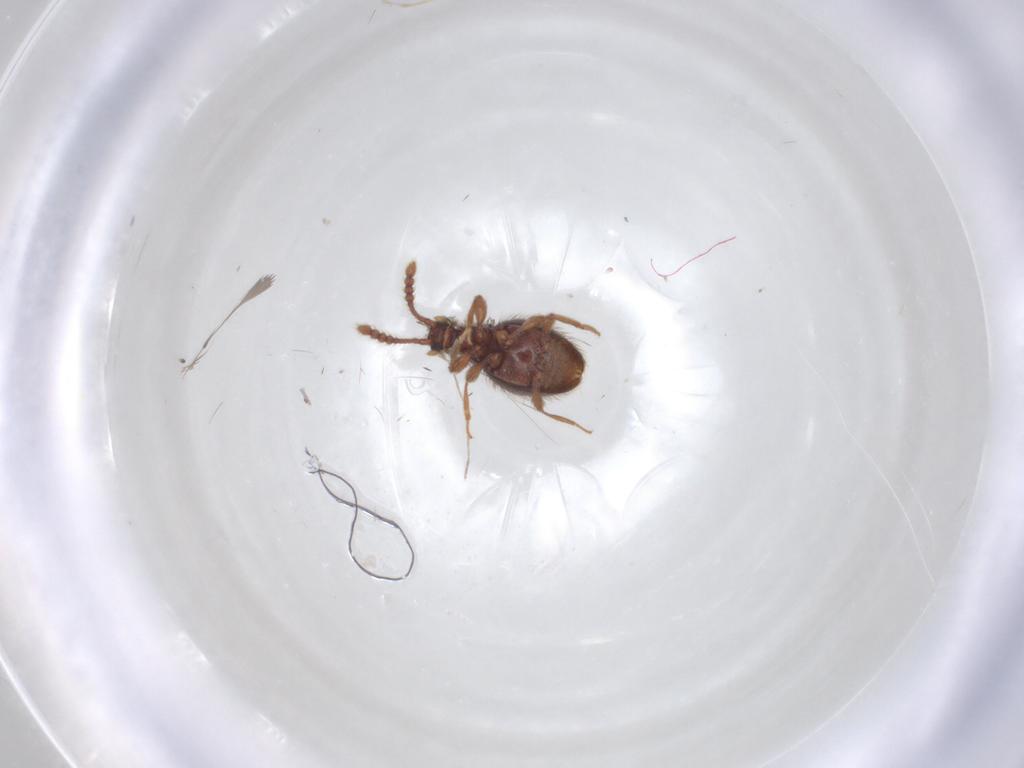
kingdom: Animalia
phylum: Arthropoda
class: Insecta
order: Coleoptera
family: Staphylinidae
